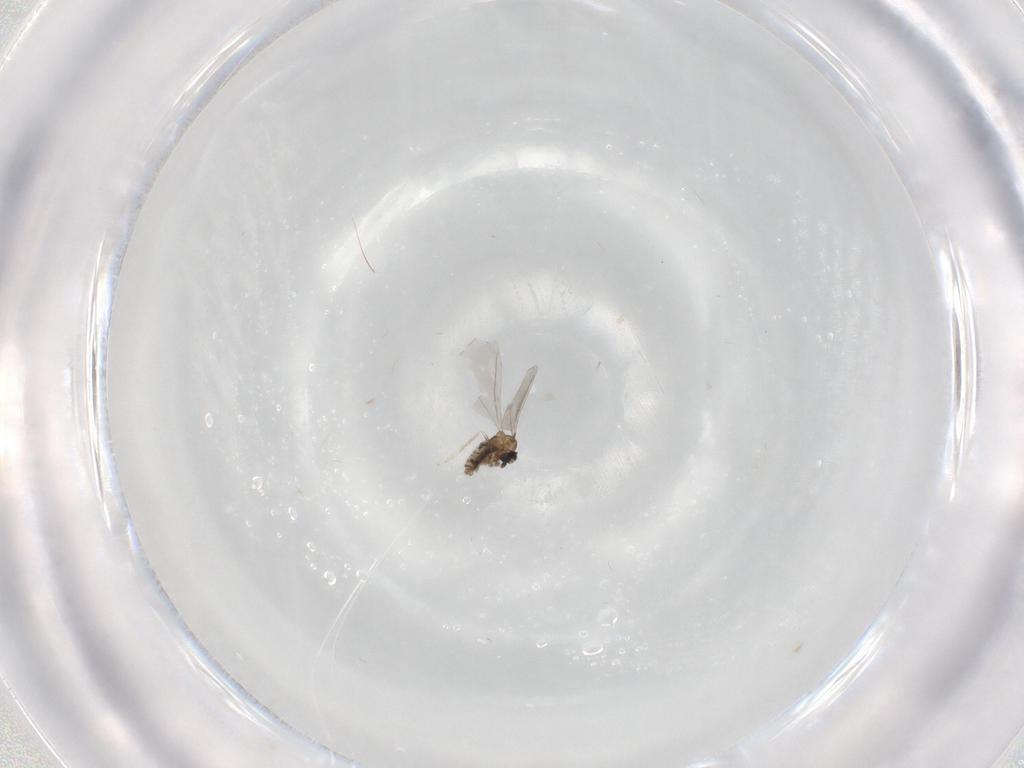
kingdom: Animalia
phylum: Arthropoda
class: Insecta
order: Diptera
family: Cecidomyiidae
